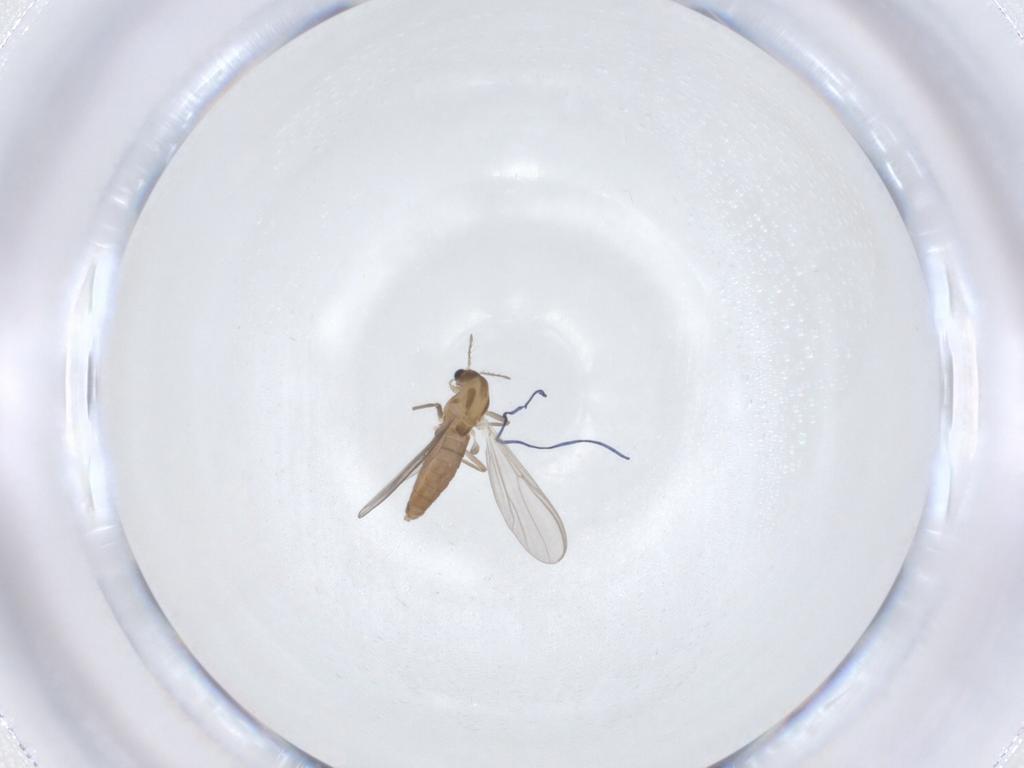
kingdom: Animalia
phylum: Arthropoda
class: Insecta
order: Diptera
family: Chironomidae
